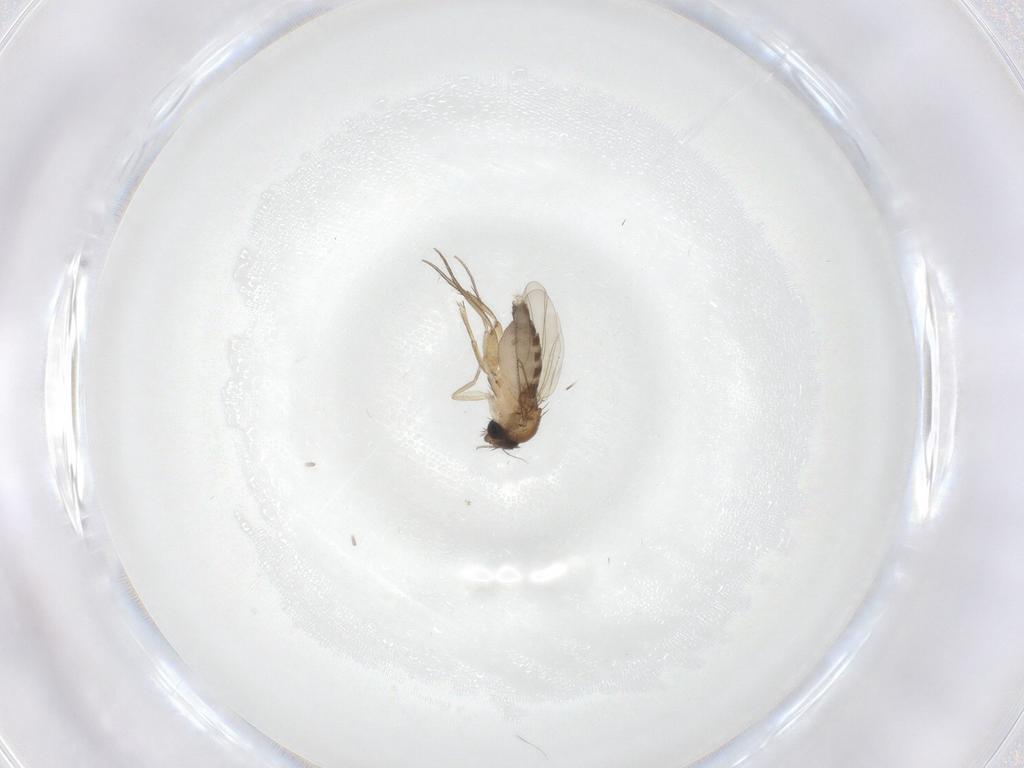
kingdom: Animalia
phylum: Arthropoda
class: Insecta
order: Diptera
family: Phoridae
